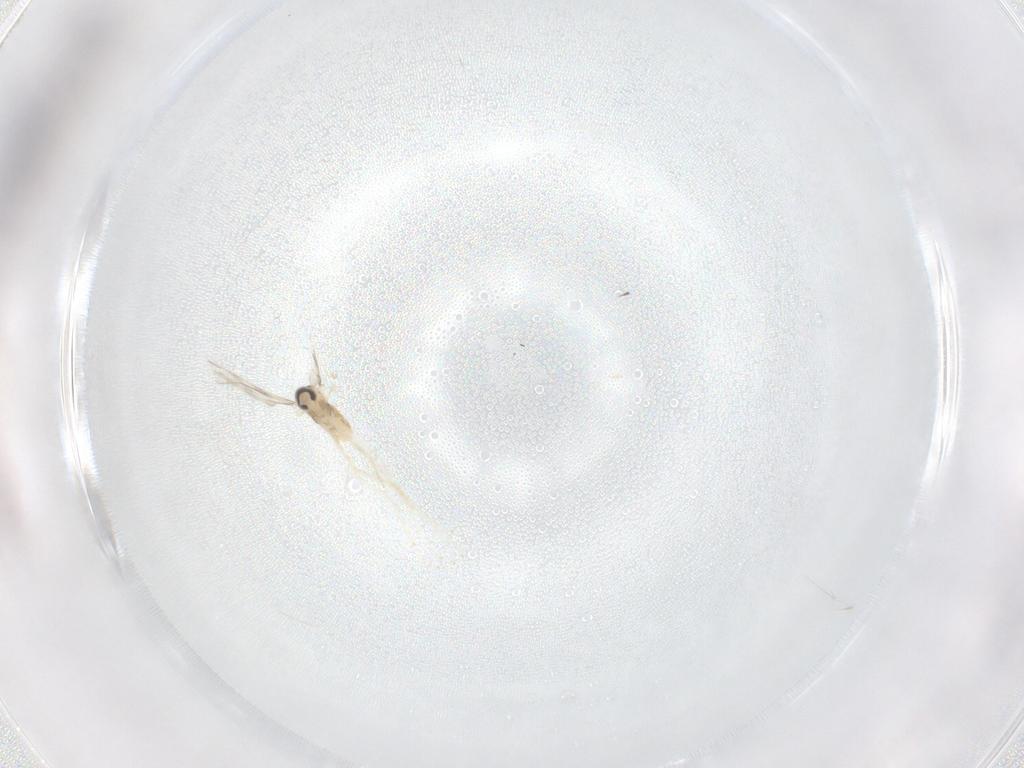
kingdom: Animalia
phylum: Arthropoda
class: Insecta
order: Diptera
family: Cecidomyiidae
